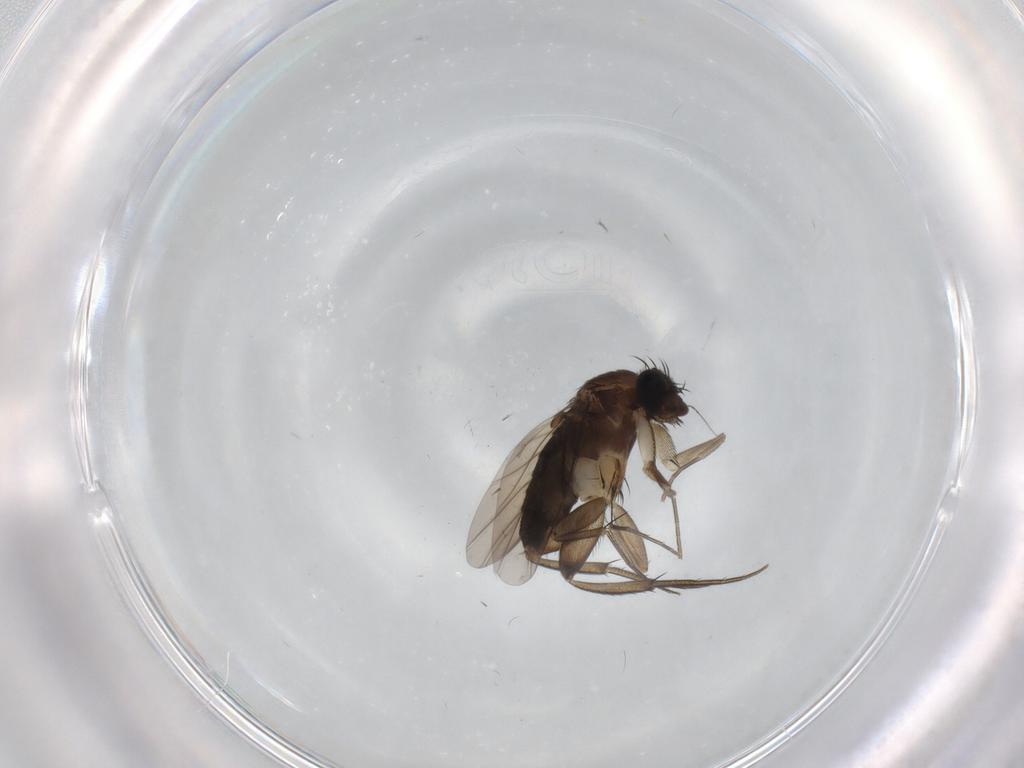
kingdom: Animalia
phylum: Arthropoda
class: Insecta
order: Diptera
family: Phoridae
